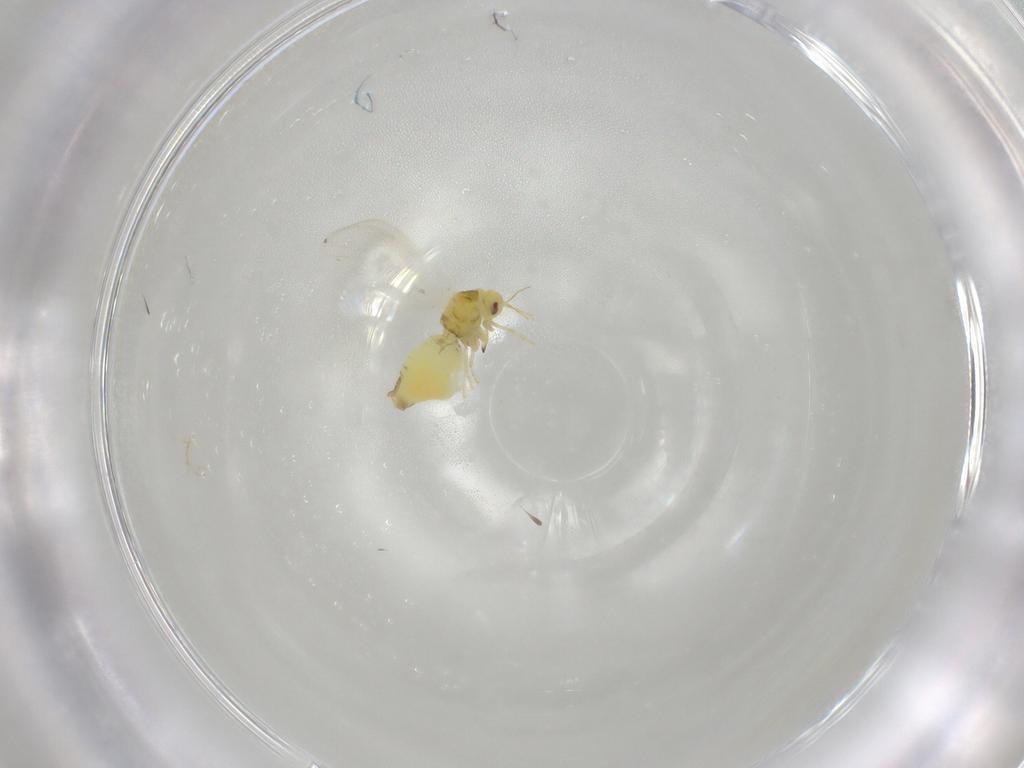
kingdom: Animalia
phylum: Arthropoda
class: Insecta
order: Hemiptera
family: Aleyrodidae
